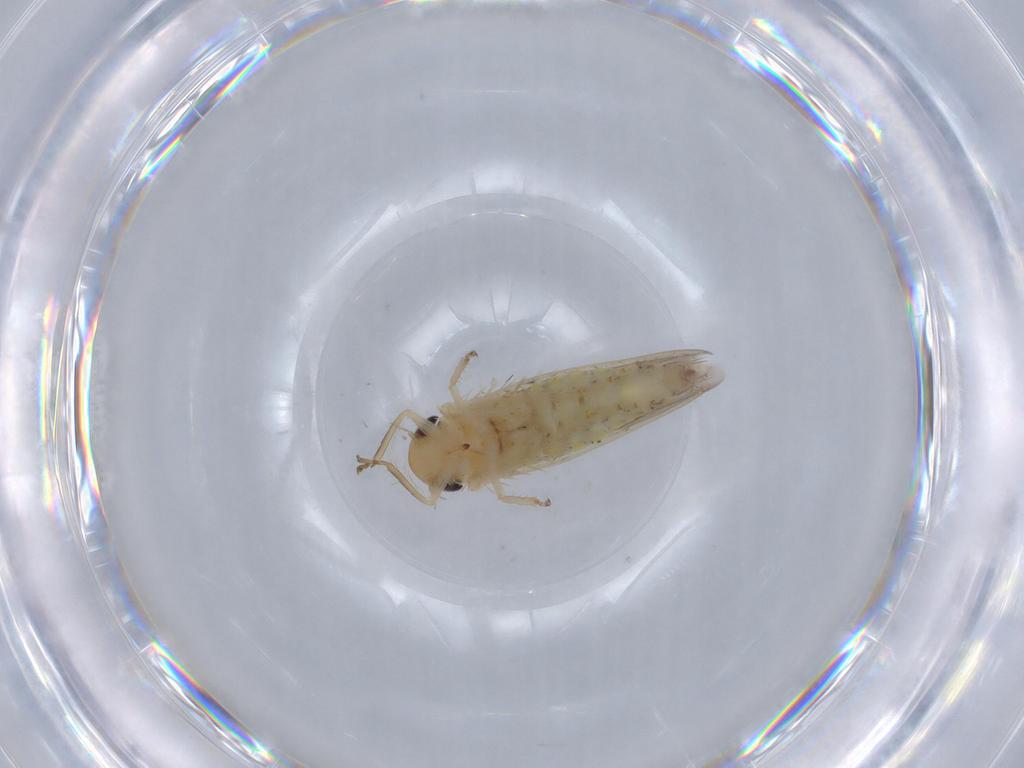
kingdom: Animalia
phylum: Arthropoda
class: Insecta
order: Hemiptera
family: Cicadellidae
